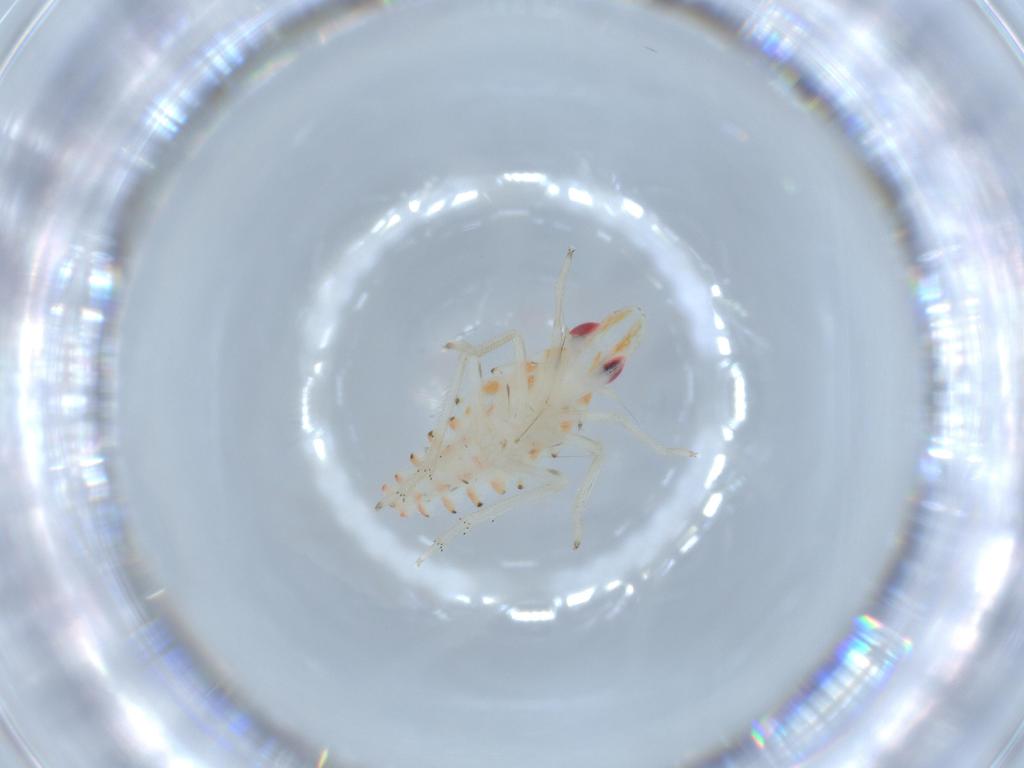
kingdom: Animalia
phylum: Arthropoda
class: Insecta
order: Hemiptera
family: Tropiduchidae
